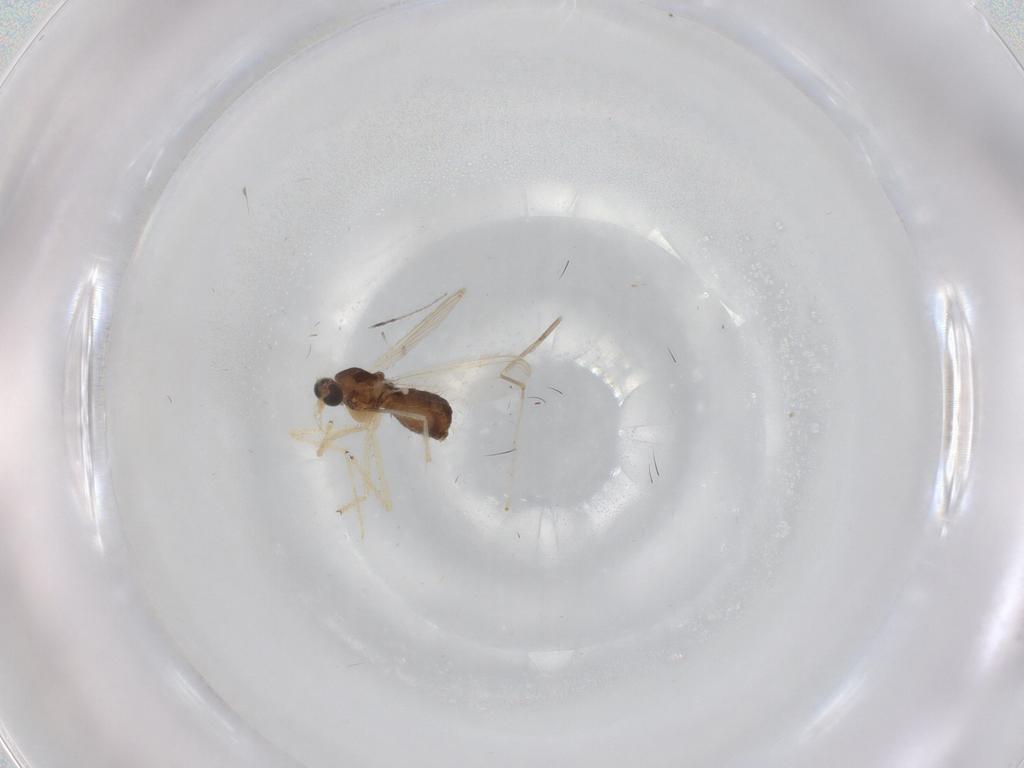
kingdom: Animalia
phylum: Arthropoda
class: Insecta
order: Diptera
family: Chironomidae
